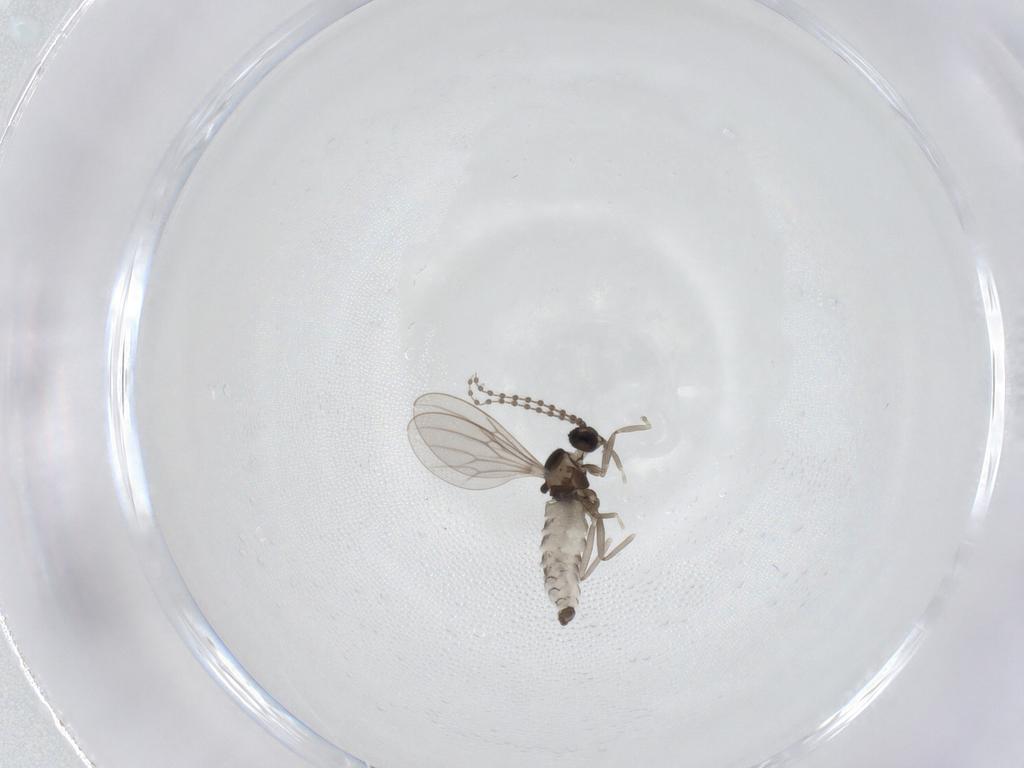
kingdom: Animalia
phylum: Arthropoda
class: Insecta
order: Diptera
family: Cecidomyiidae
